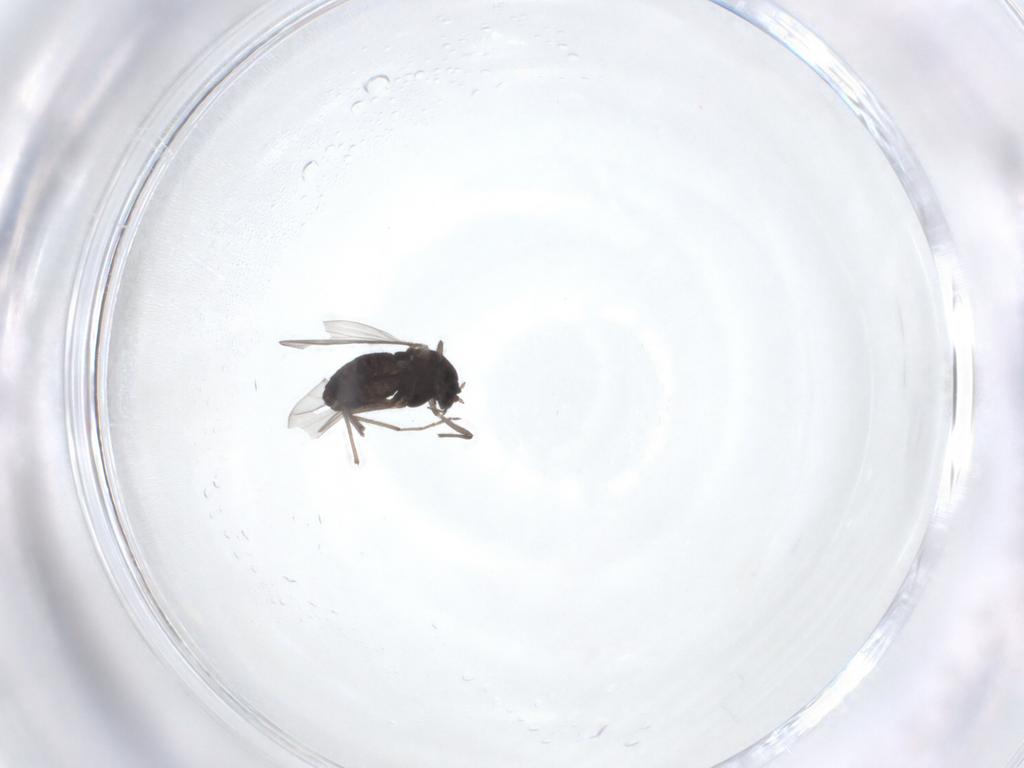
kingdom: Animalia
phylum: Arthropoda
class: Insecta
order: Diptera
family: Chironomidae
